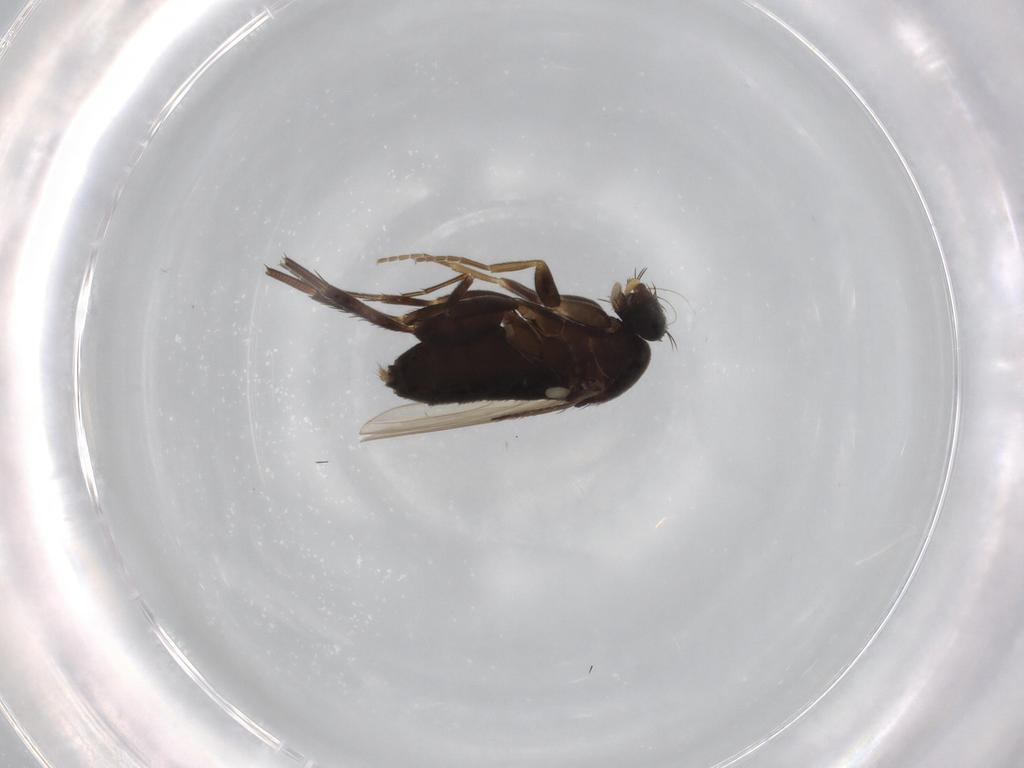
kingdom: Animalia
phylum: Arthropoda
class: Insecta
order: Diptera
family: Phoridae
